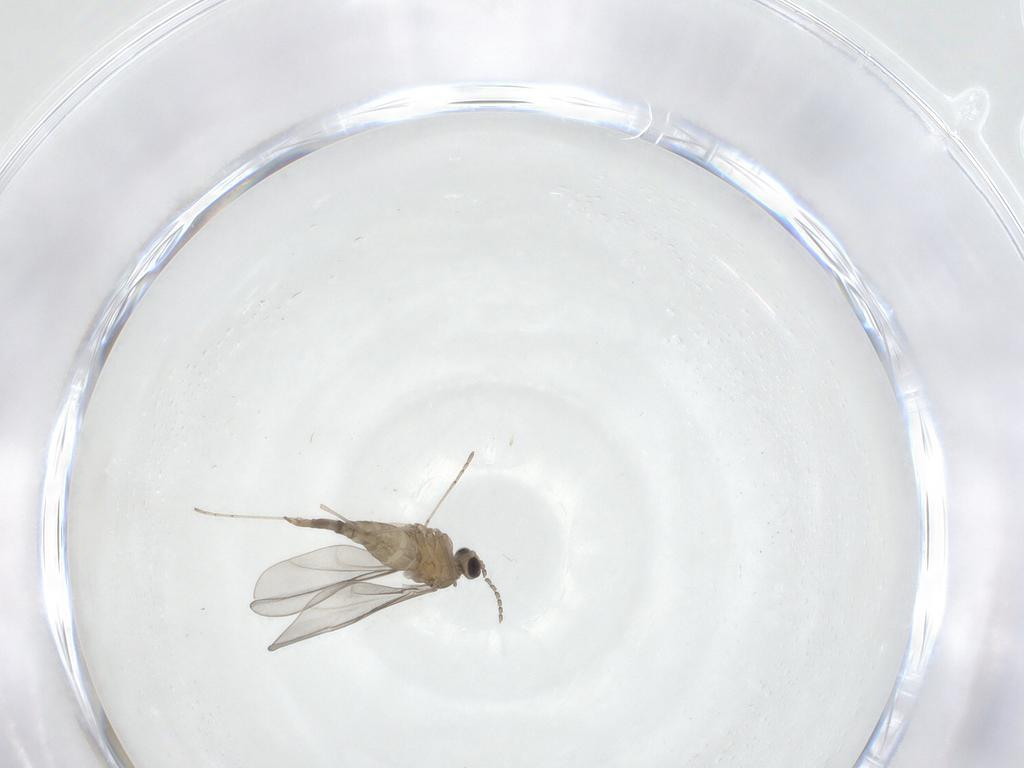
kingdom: Animalia
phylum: Arthropoda
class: Insecta
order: Diptera
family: Cecidomyiidae
